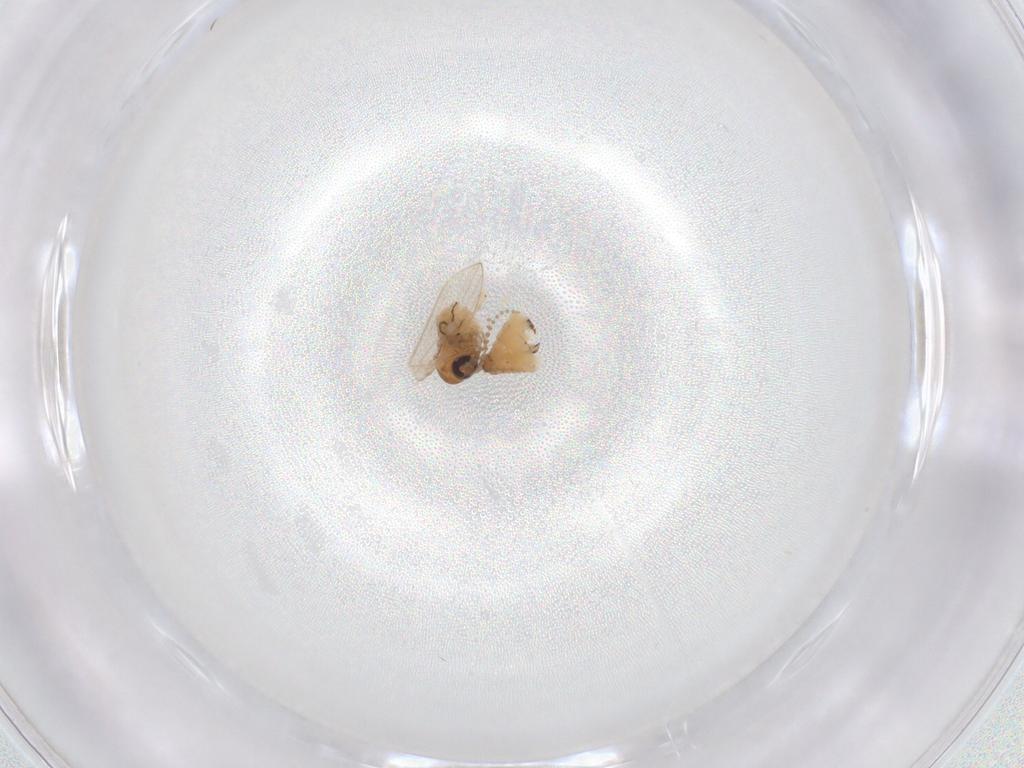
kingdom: Animalia
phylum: Arthropoda
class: Insecta
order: Diptera
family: Psychodidae
